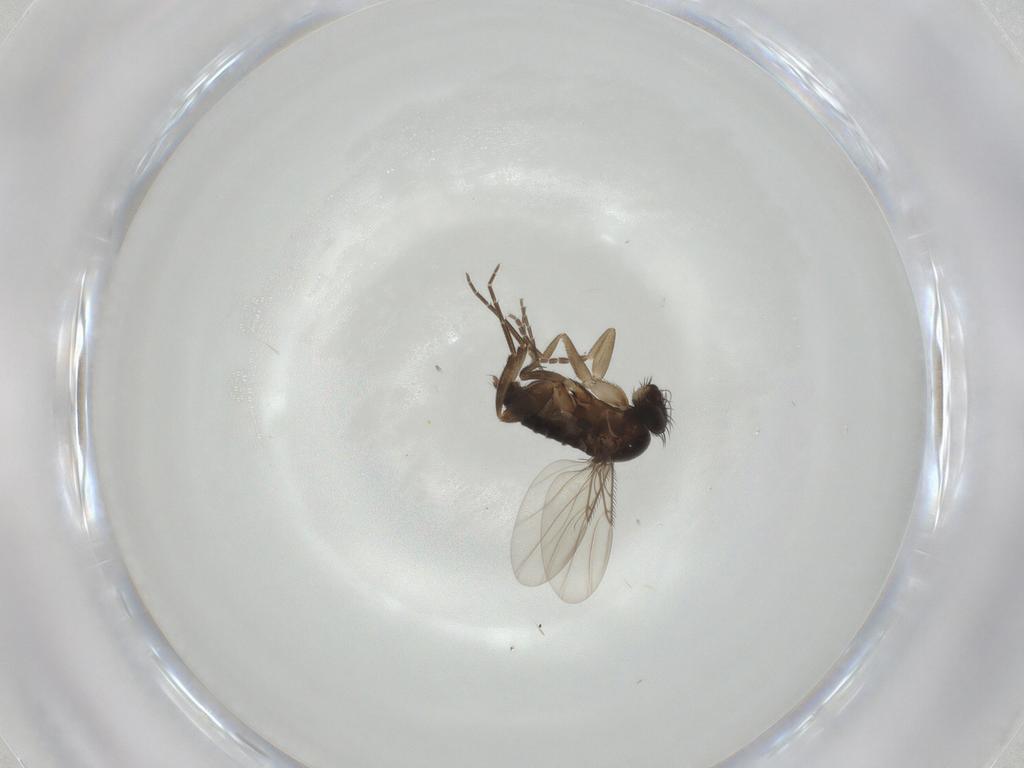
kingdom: Animalia
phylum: Arthropoda
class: Insecta
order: Diptera
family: Phoridae
